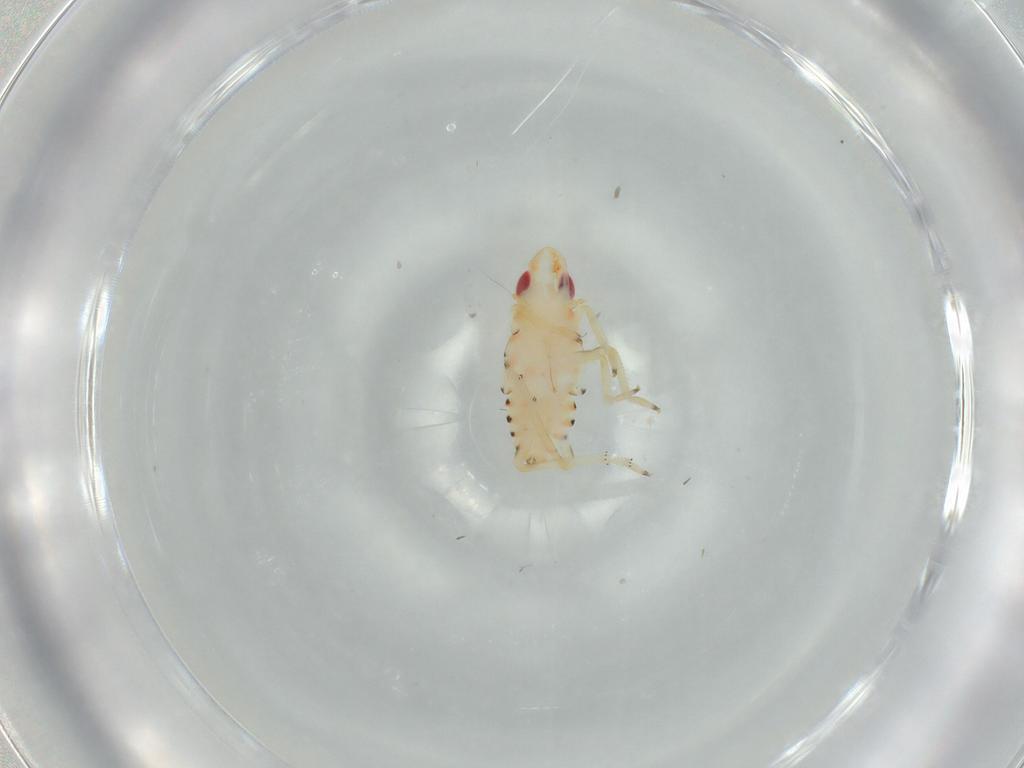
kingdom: Animalia
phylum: Arthropoda
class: Insecta
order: Hemiptera
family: Tropiduchidae
